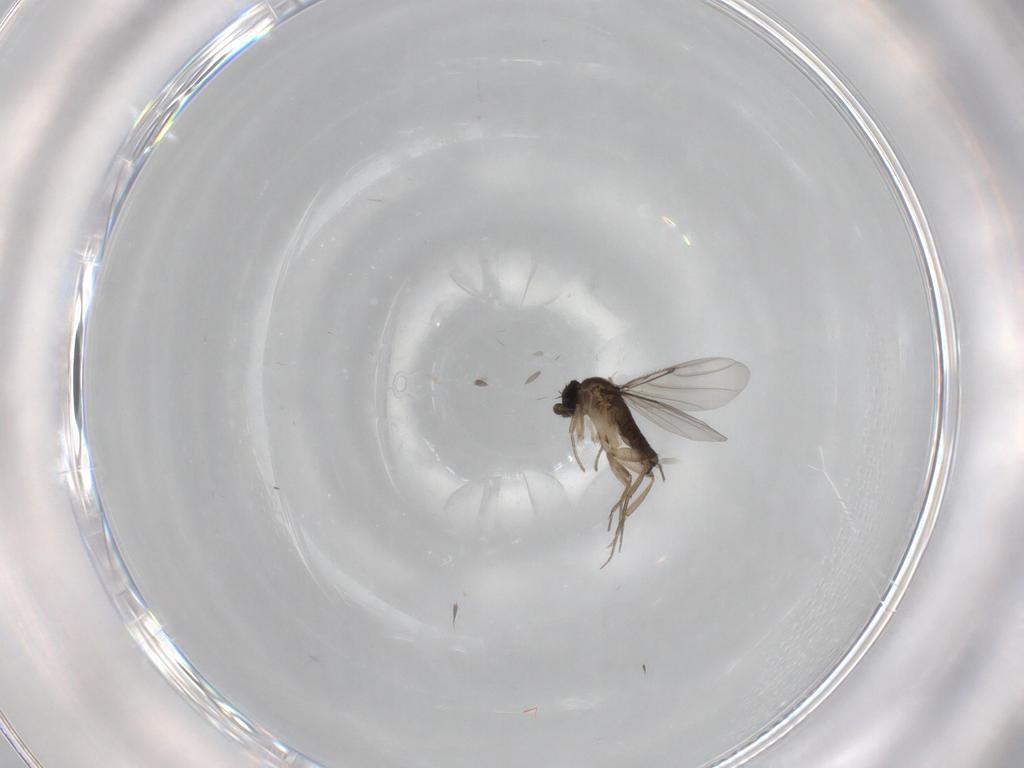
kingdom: Animalia
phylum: Arthropoda
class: Insecta
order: Diptera
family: Phoridae
